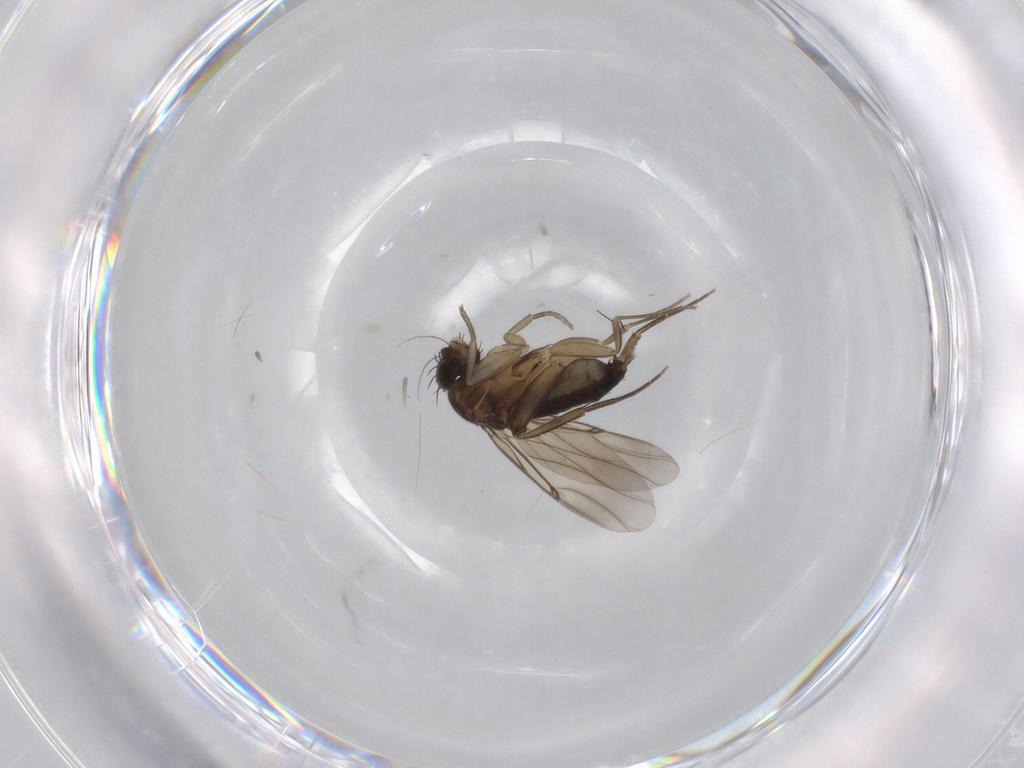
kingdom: Animalia
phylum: Arthropoda
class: Insecta
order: Diptera
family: Phoridae
